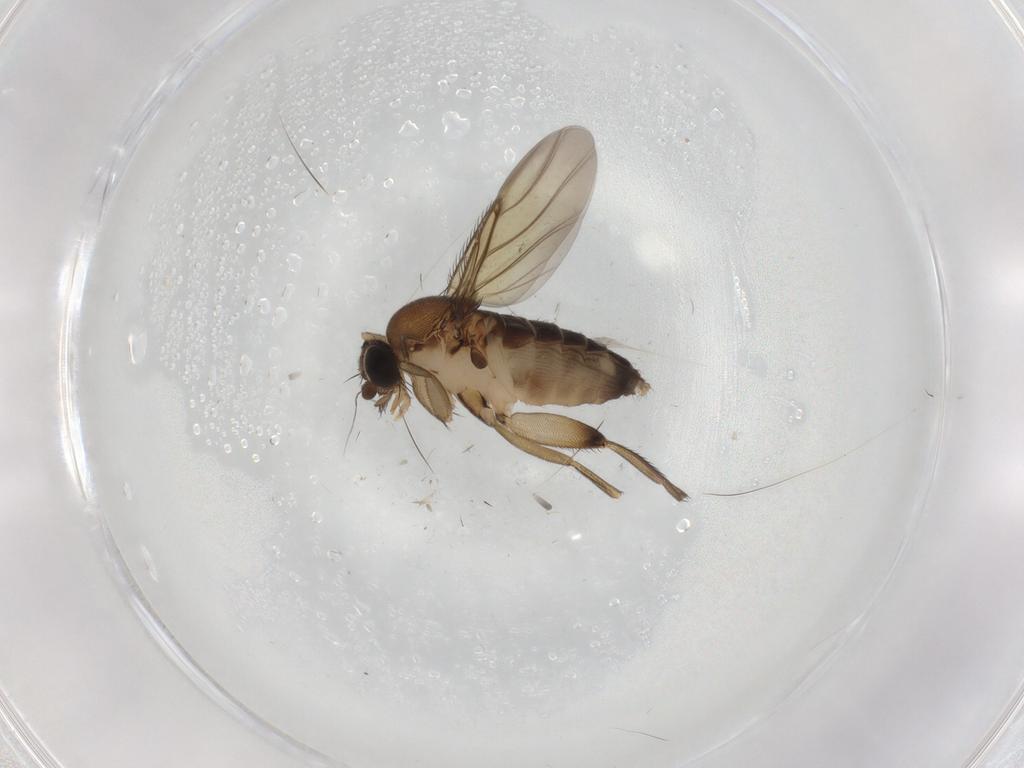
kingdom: Animalia
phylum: Arthropoda
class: Insecta
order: Diptera
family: Phoridae
